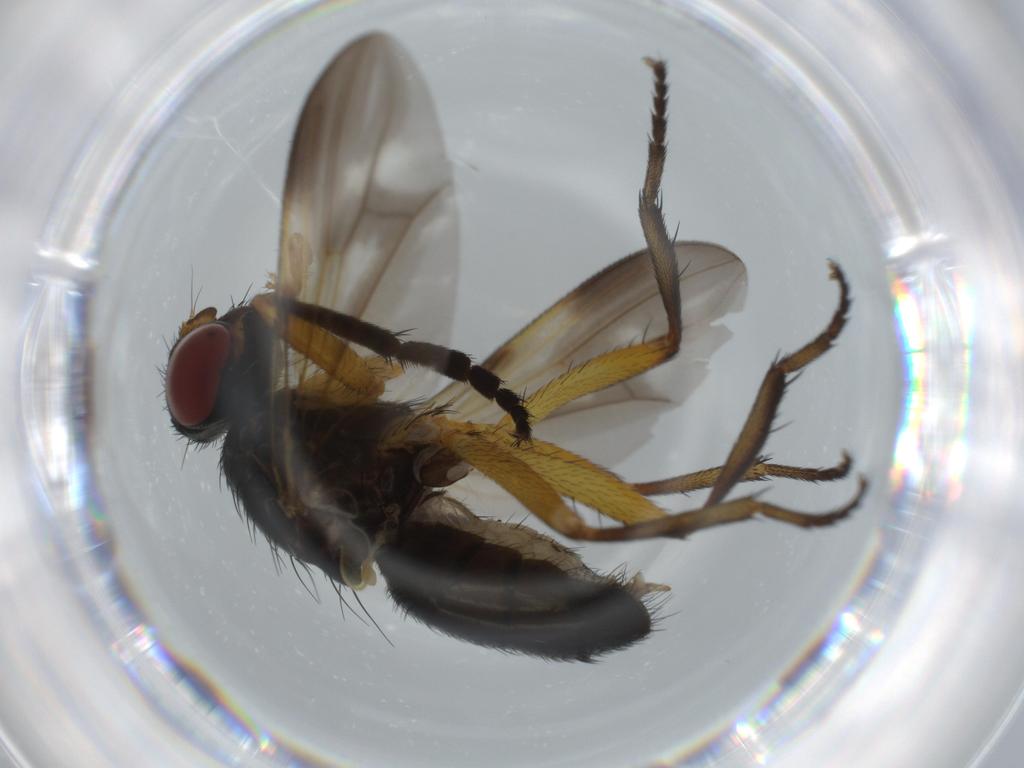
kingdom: Animalia
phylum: Arthropoda
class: Insecta
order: Diptera
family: Calliphoridae
